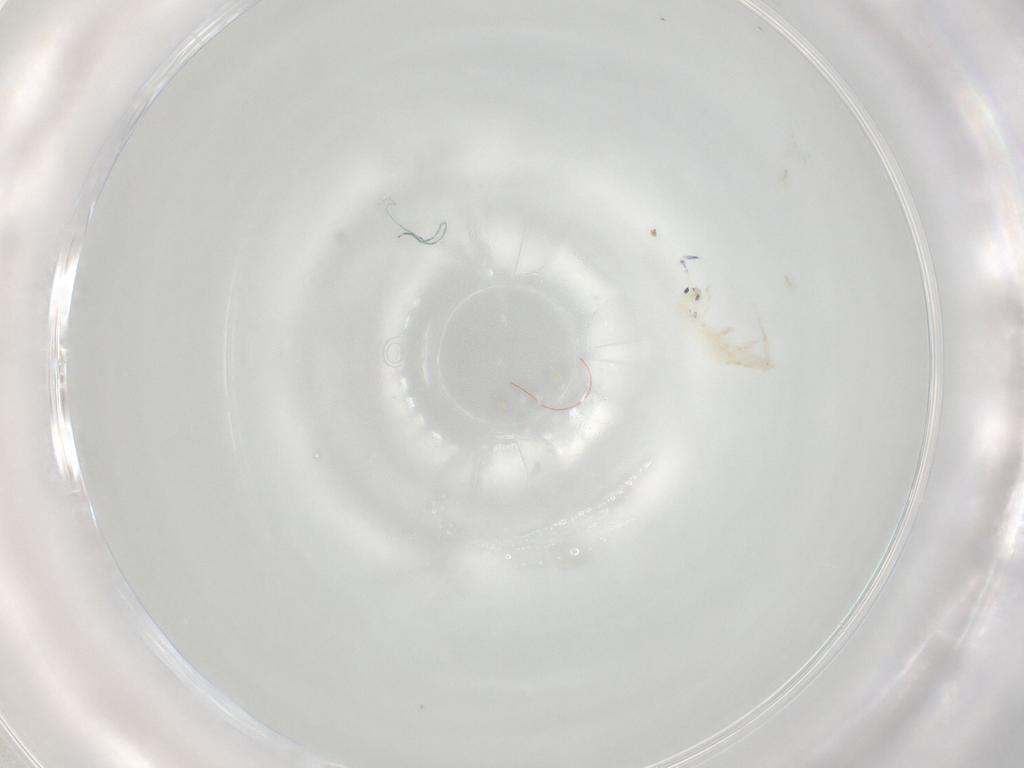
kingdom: Animalia
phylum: Arthropoda
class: Collembola
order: Entomobryomorpha
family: Entomobryidae
